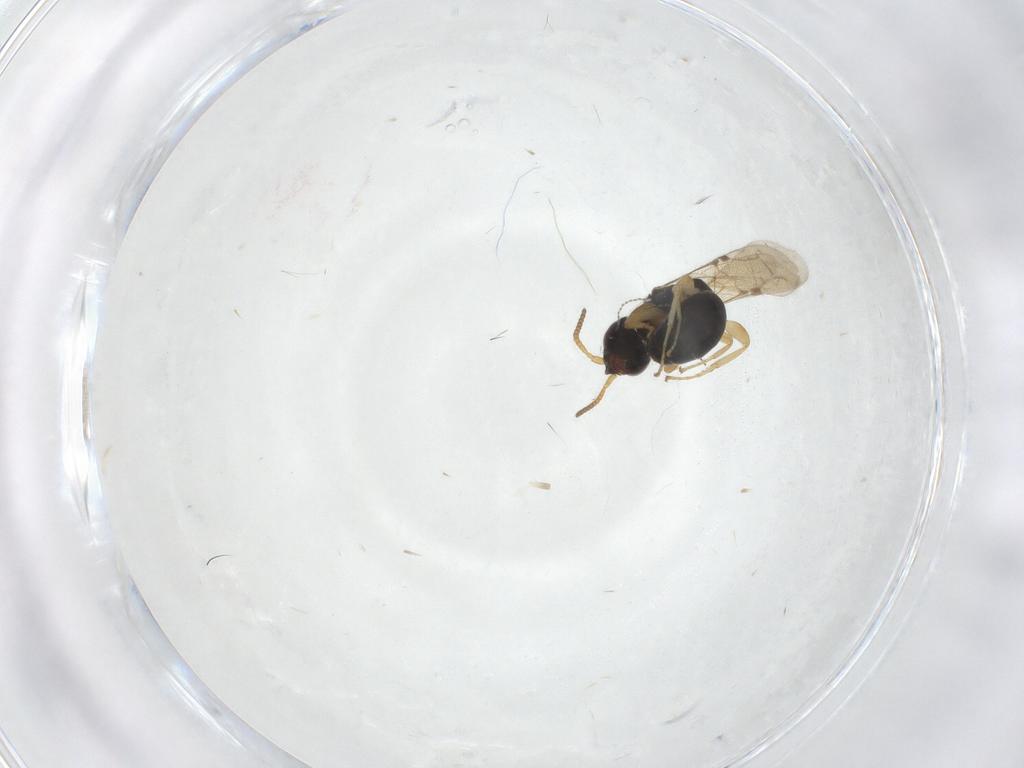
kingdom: Animalia
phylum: Arthropoda
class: Insecta
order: Hymenoptera
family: Bethylidae
